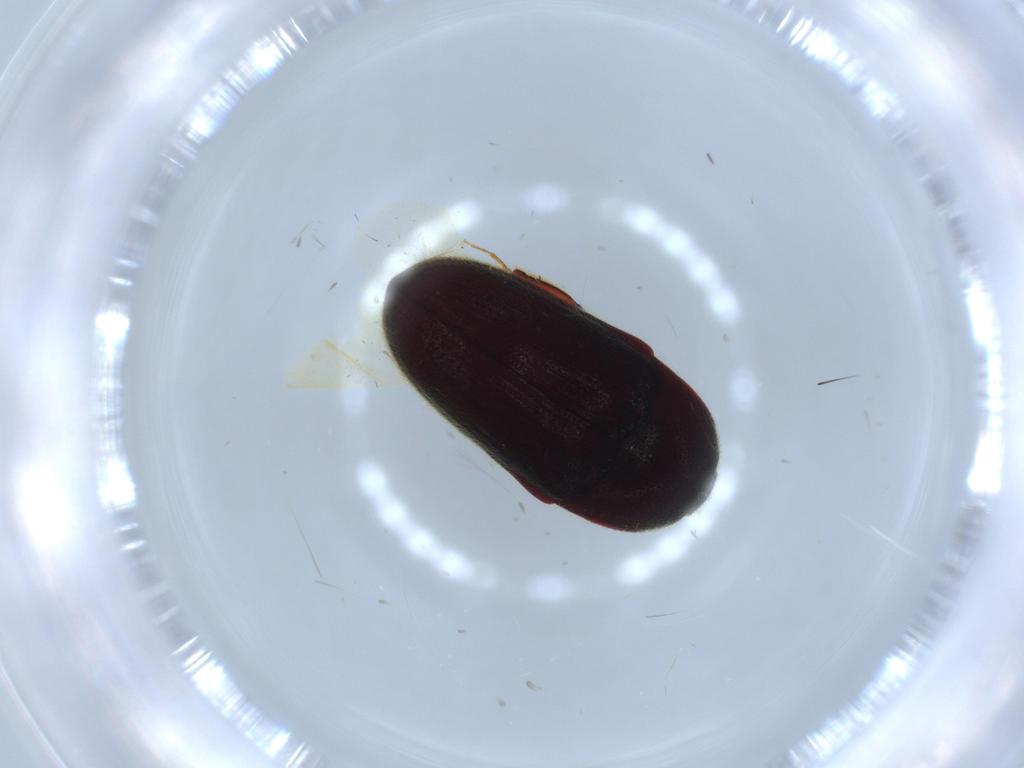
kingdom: Animalia
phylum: Arthropoda
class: Insecta
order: Coleoptera
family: Throscidae
